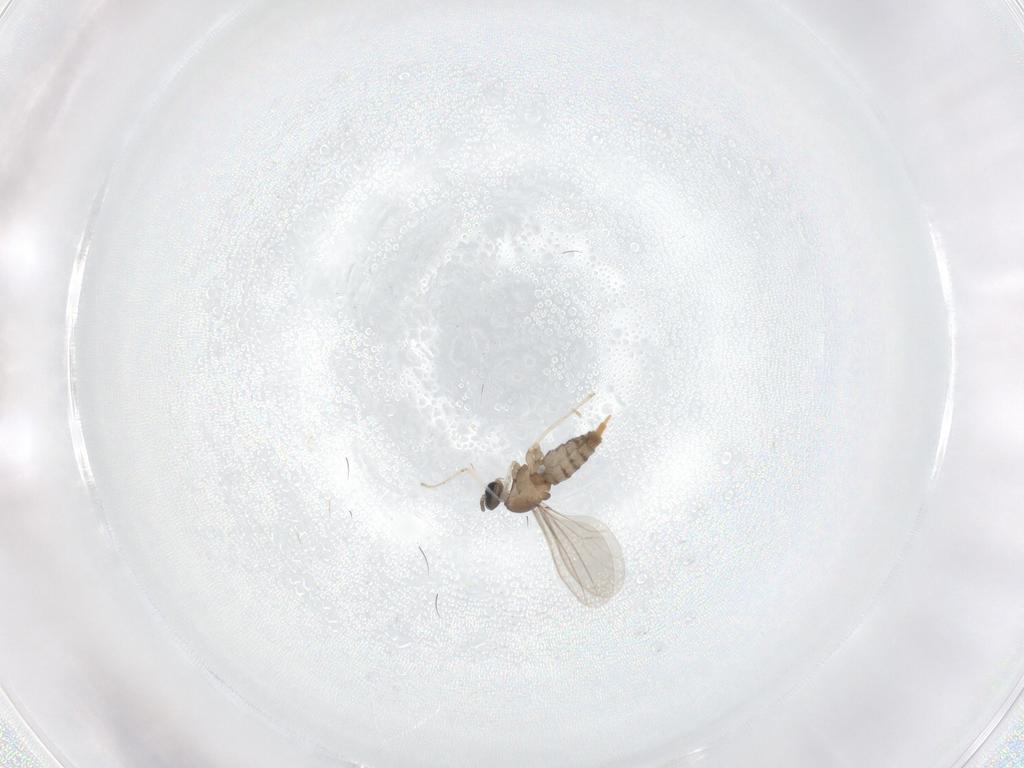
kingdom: Animalia
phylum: Arthropoda
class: Insecta
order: Diptera
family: Cecidomyiidae
